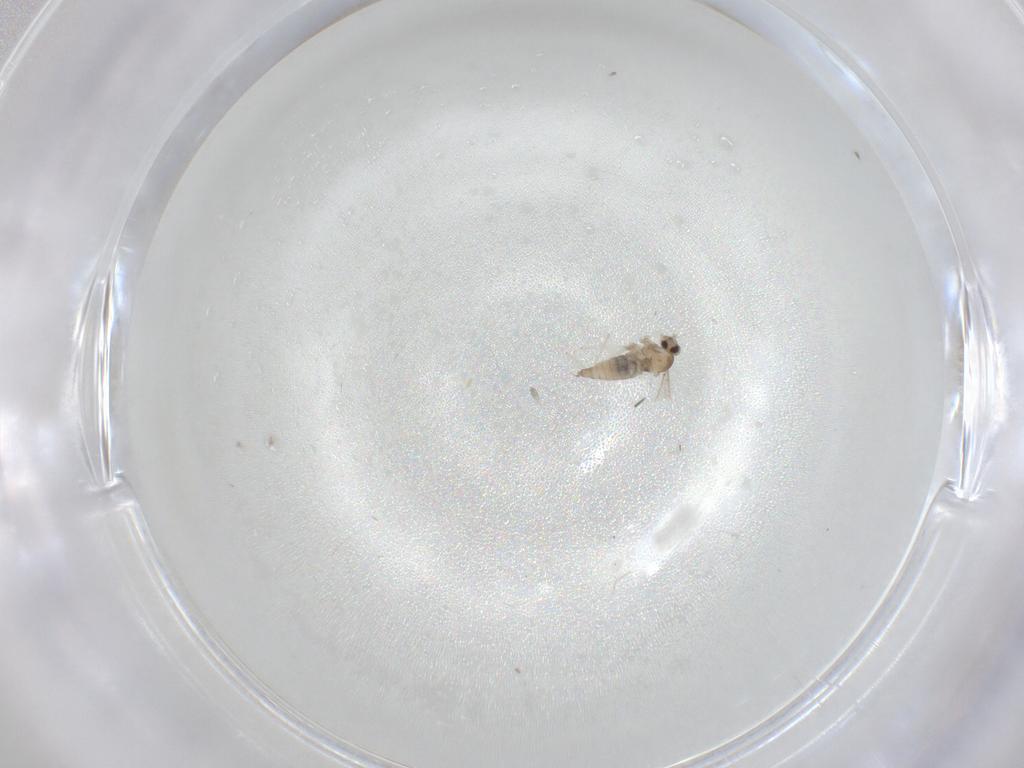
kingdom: Animalia
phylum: Arthropoda
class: Insecta
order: Diptera
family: Cecidomyiidae
